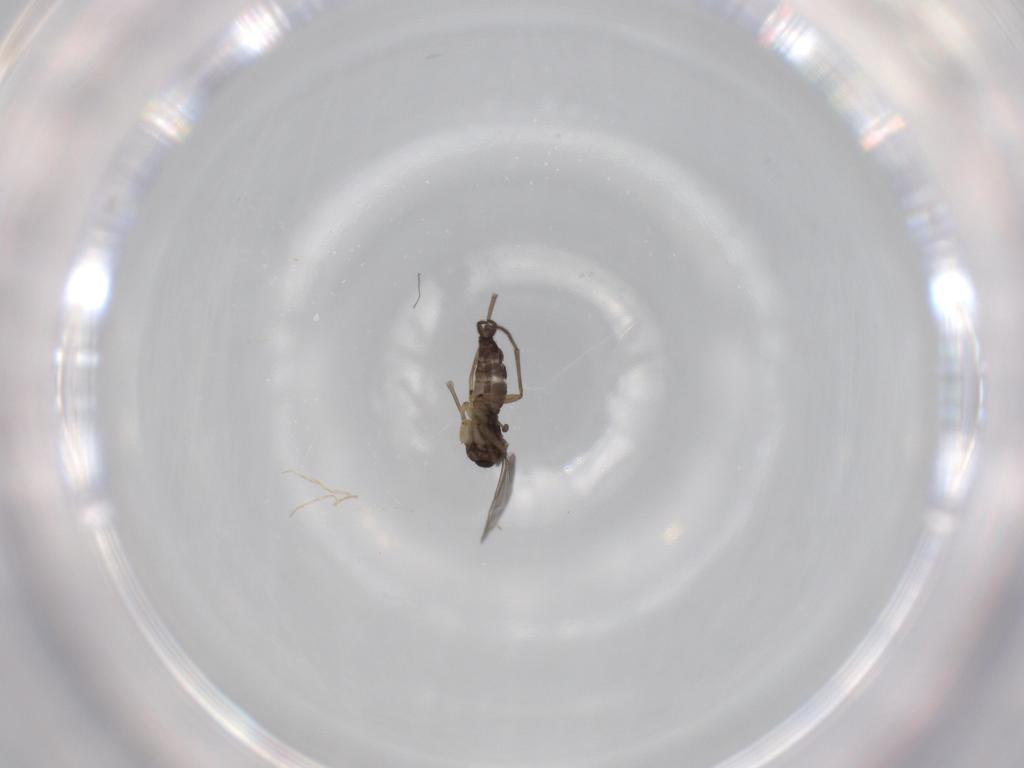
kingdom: Animalia
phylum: Arthropoda
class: Insecta
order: Diptera
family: Sciaridae
